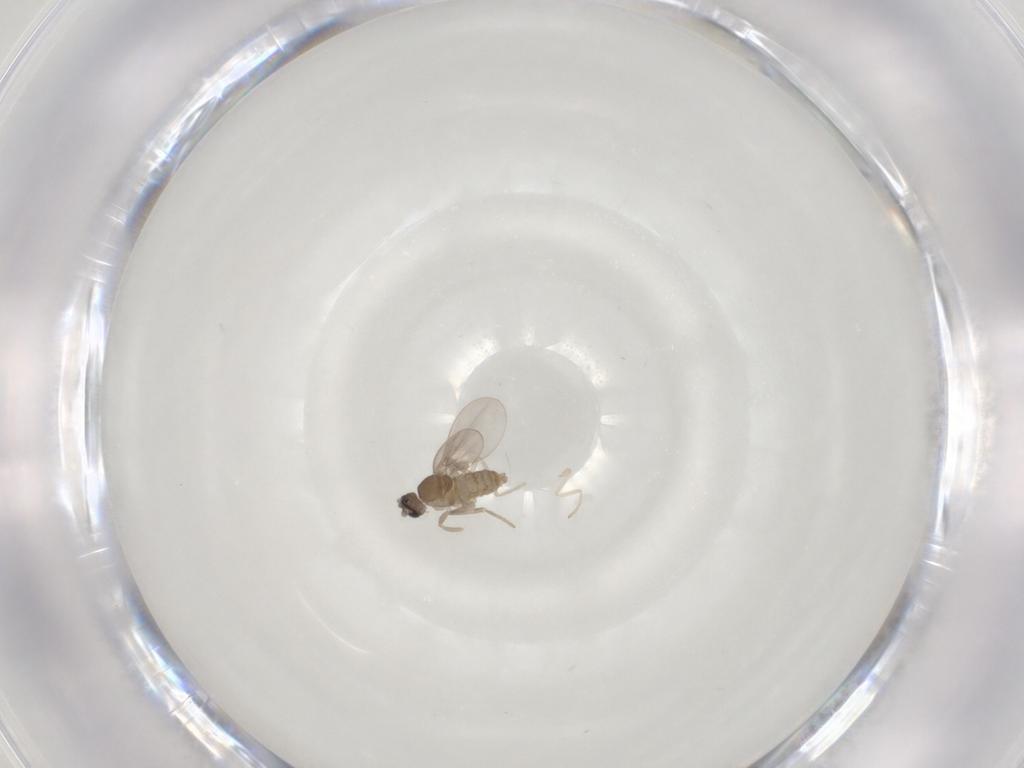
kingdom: Animalia
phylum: Arthropoda
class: Insecta
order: Diptera
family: Cecidomyiidae
